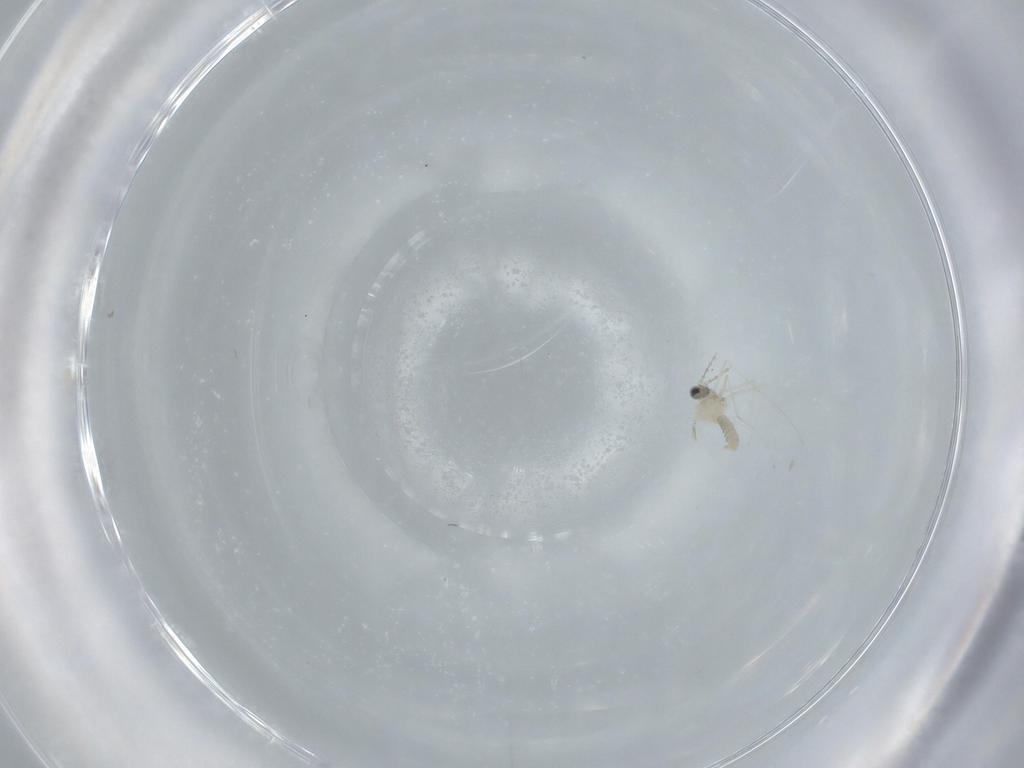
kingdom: Animalia
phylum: Arthropoda
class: Insecta
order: Diptera
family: Cecidomyiidae
